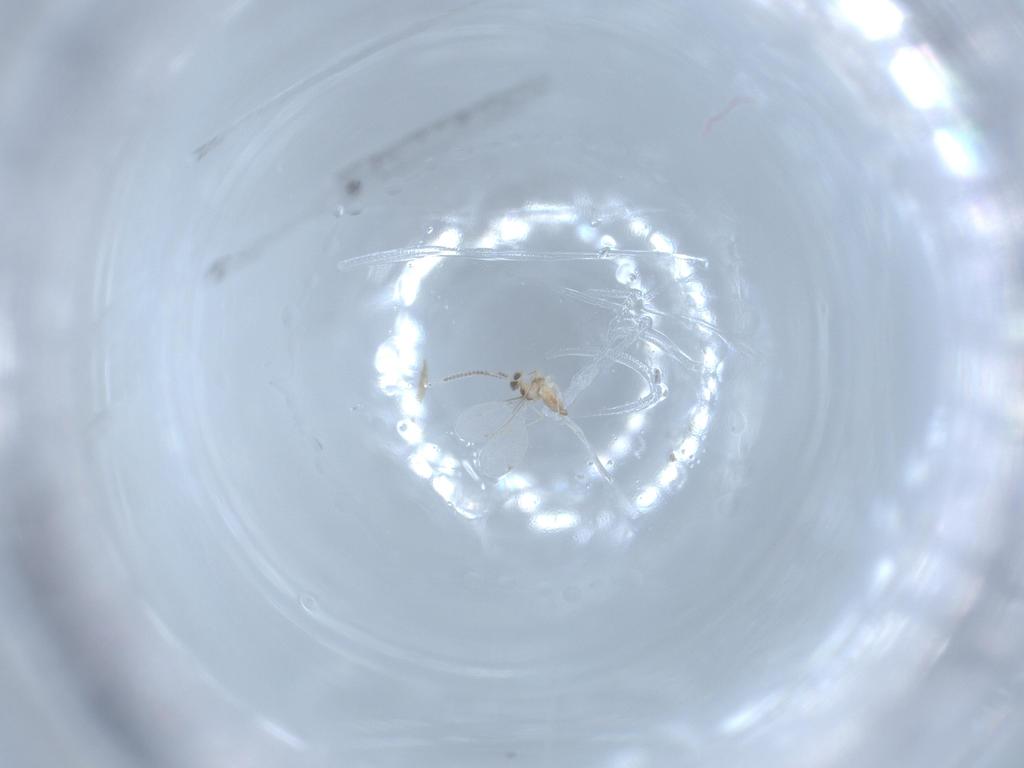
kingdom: Animalia
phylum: Arthropoda
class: Insecta
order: Diptera
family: Cecidomyiidae
